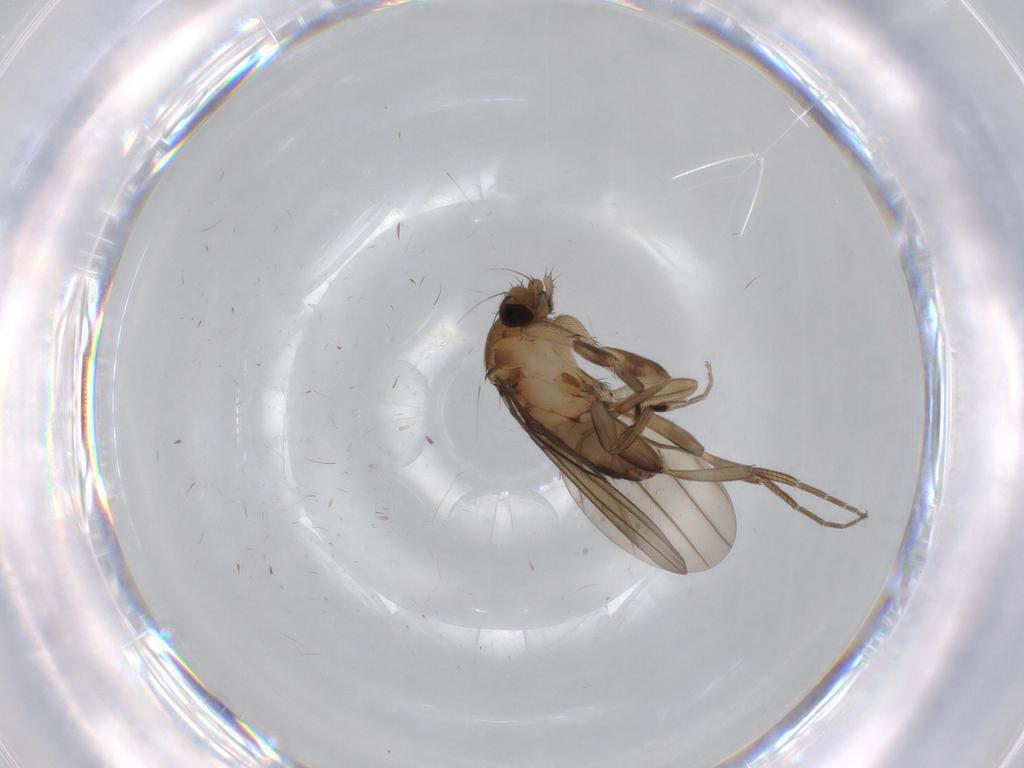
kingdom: Animalia
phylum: Arthropoda
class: Insecta
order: Diptera
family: Phoridae
